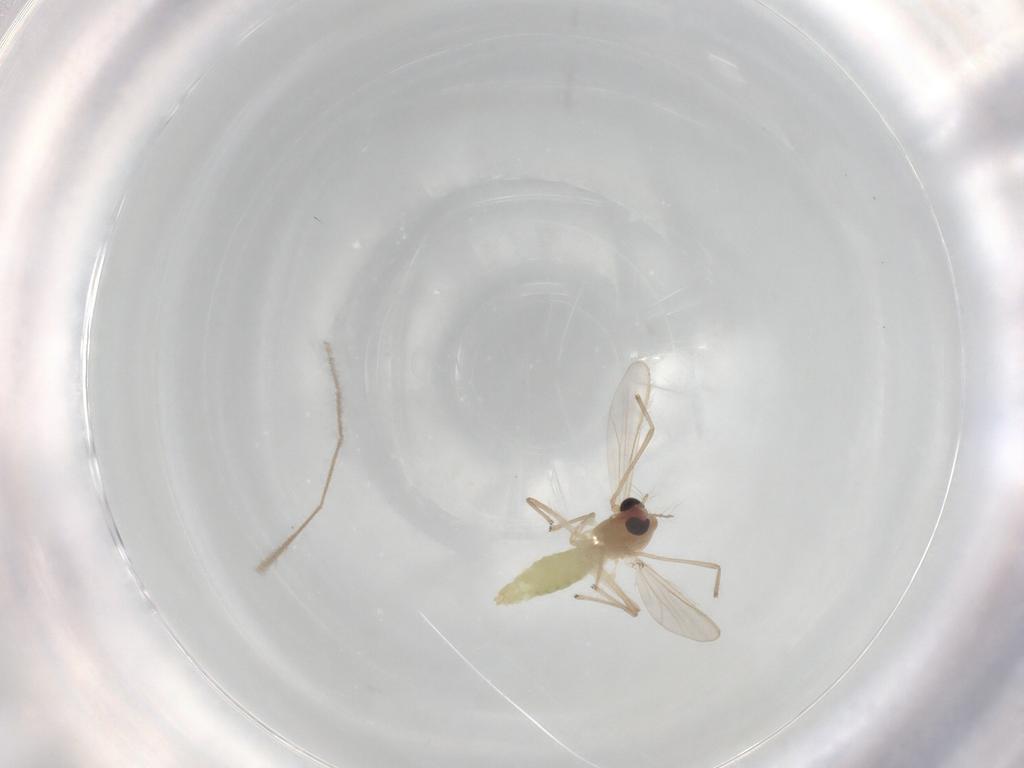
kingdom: Animalia
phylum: Arthropoda
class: Insecta
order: Diptera
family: Chironomidae
